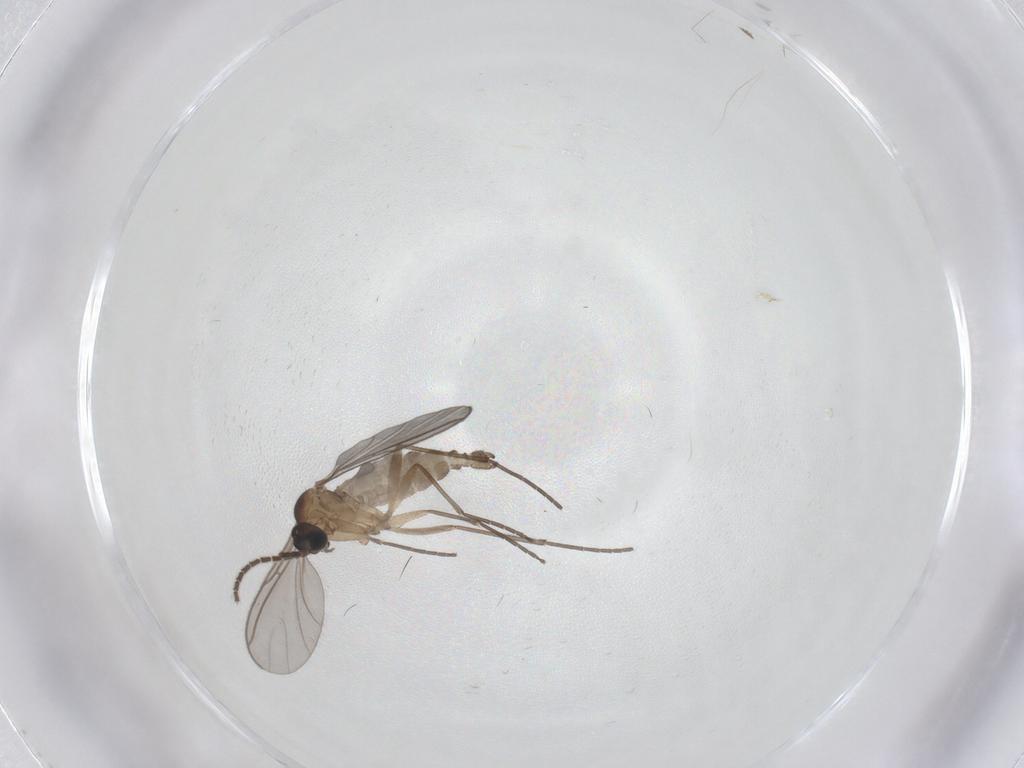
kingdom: Animalia
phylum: Arthropoda
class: Insecta
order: Diptera
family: Sciaridae
